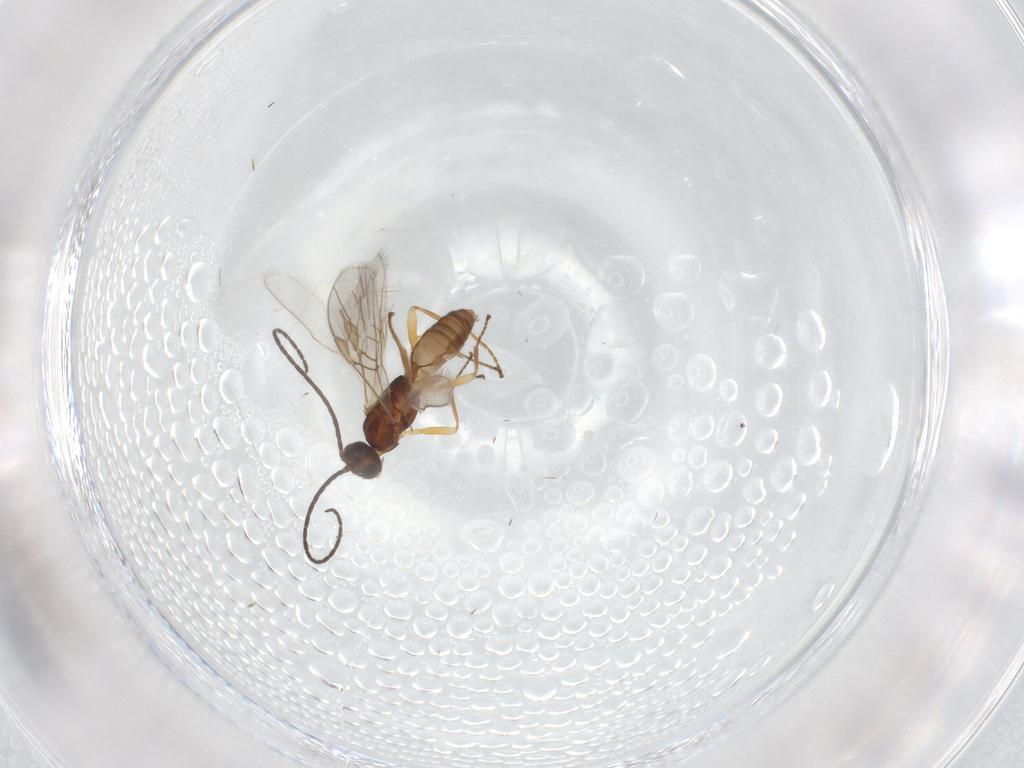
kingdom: Animalia
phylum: Arthropoda
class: Insecta
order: Hymenoptera
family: Braconidae
